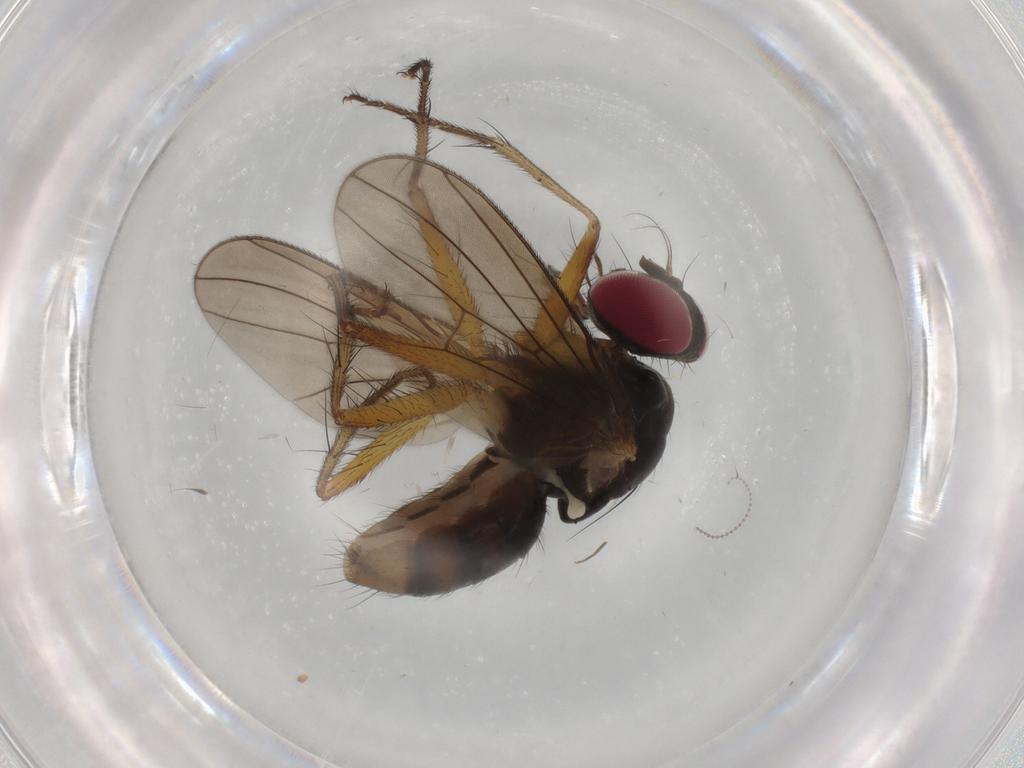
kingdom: Animalia
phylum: Arthropoda
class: Insecta
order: Diptera
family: Anthomyiidae
